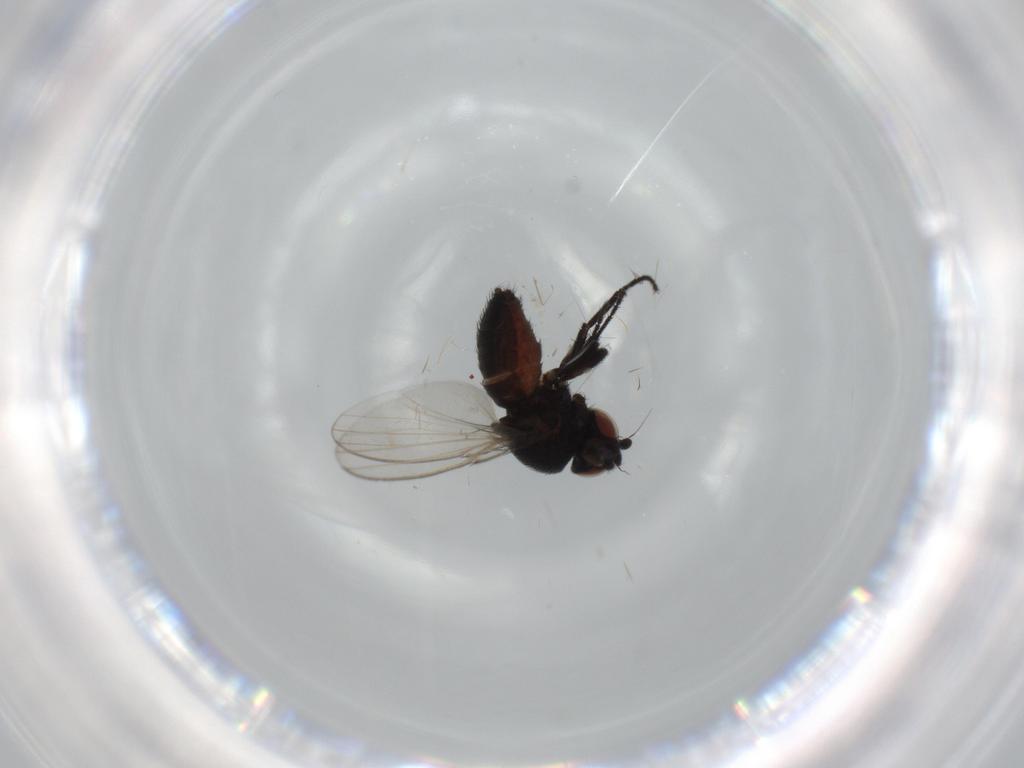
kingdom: Animalia
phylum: Arthropoda
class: Insecta
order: Diptera
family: Milichiidae
